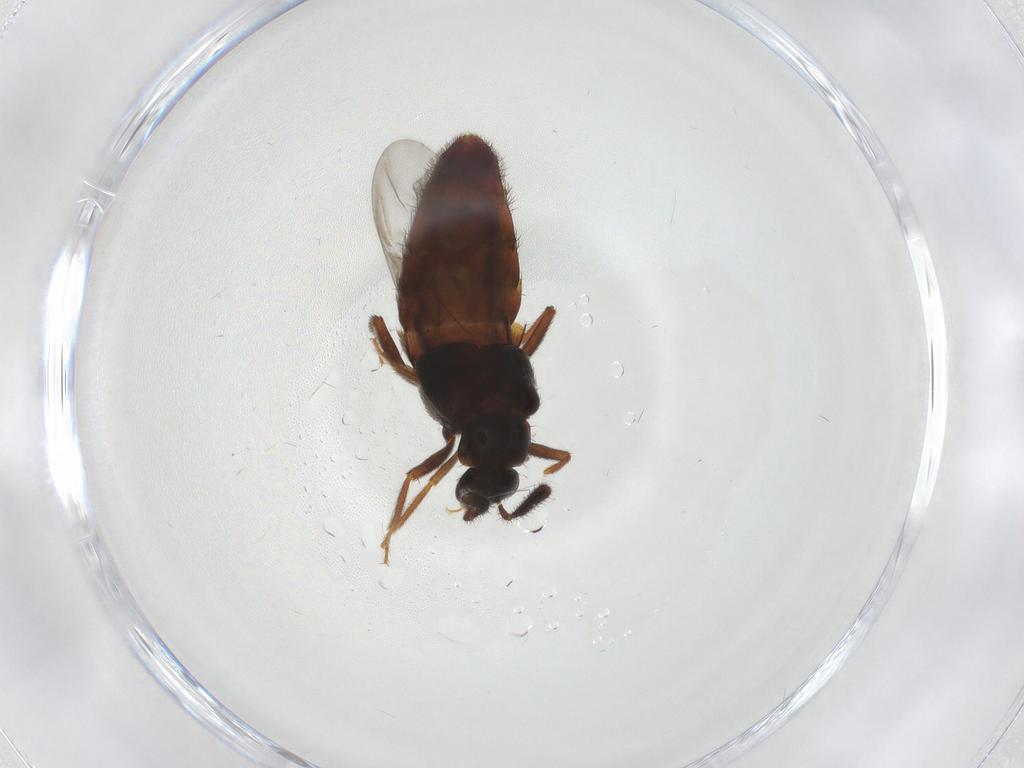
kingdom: Animalia
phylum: Arthropoda
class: Insecta
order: Coleoptera
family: Staphylinidae
